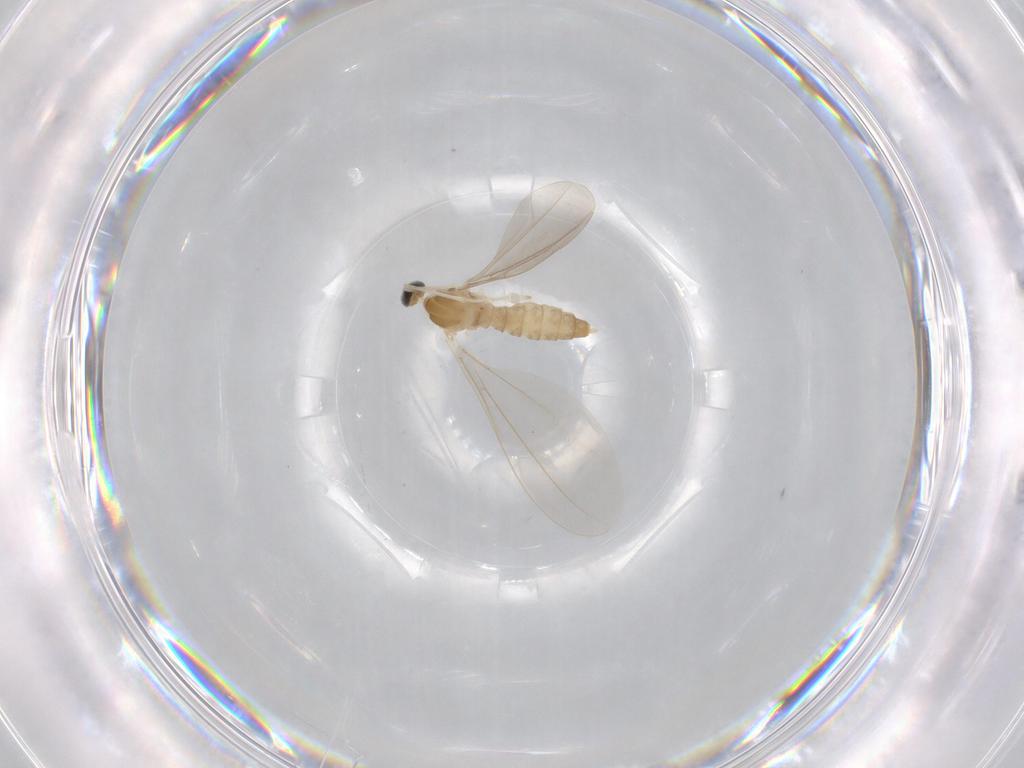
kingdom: Animalia
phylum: Arthropoda
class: Insecta
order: Diptera
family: Cecidomyiidae
